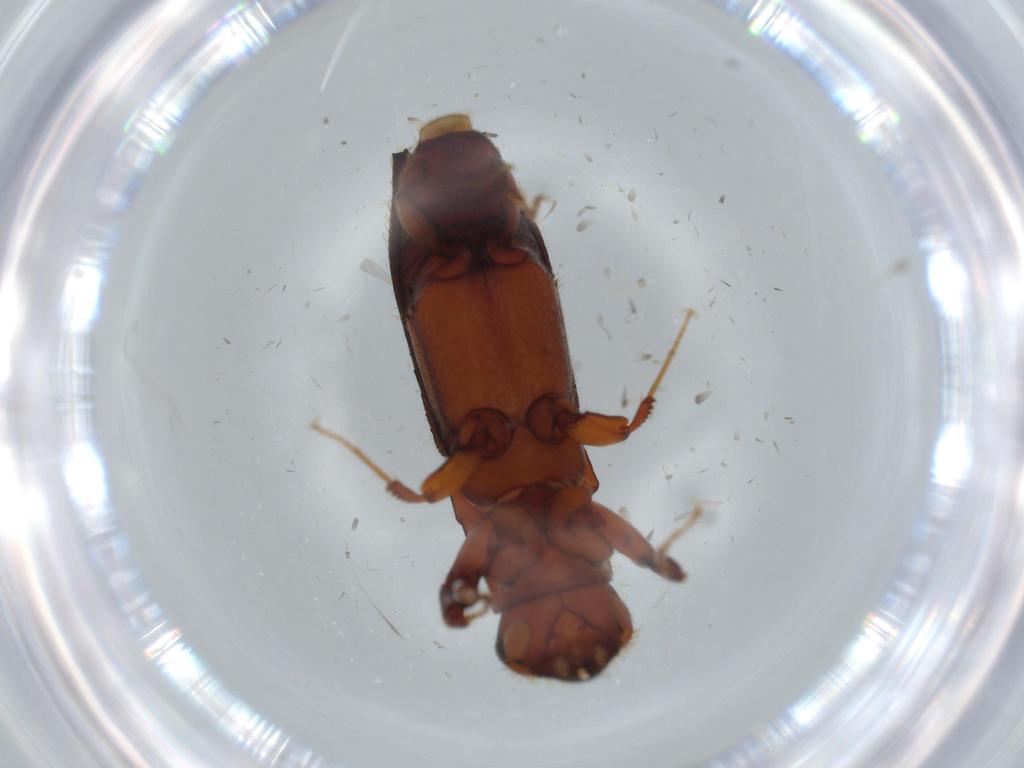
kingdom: Animalia
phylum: Arthropoda
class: Insecta
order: Coleoptera
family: Curculionidae
